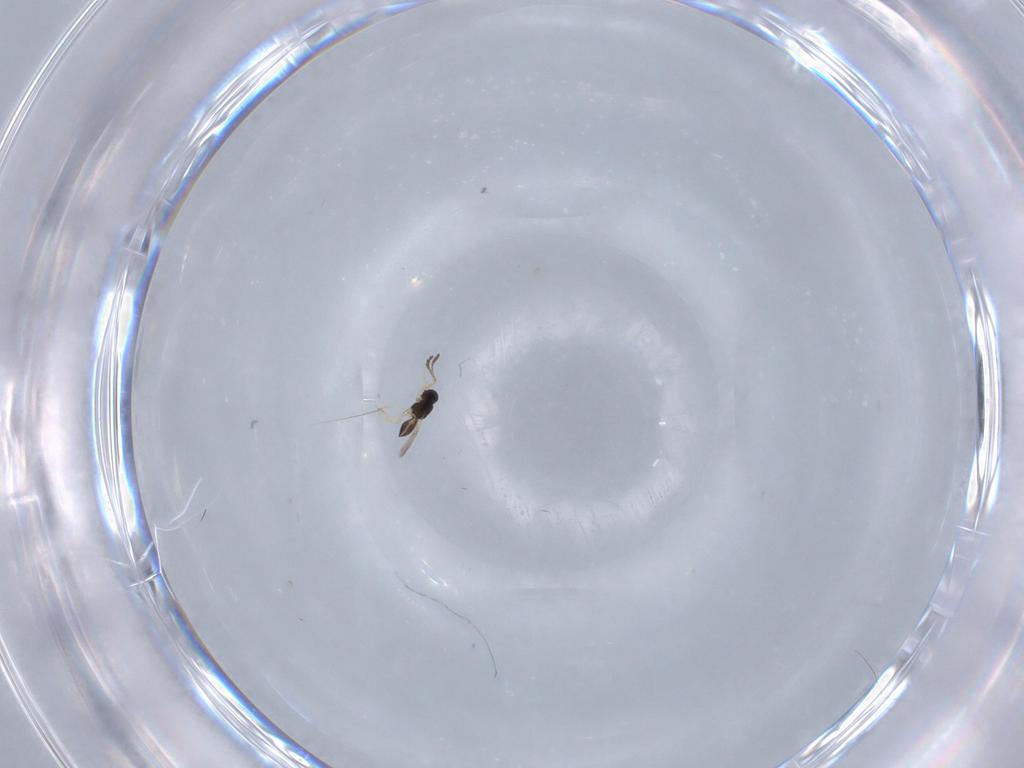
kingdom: Animalia
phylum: Arthropoda
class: Insecta
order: Hymenoptera
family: Scelionidae
